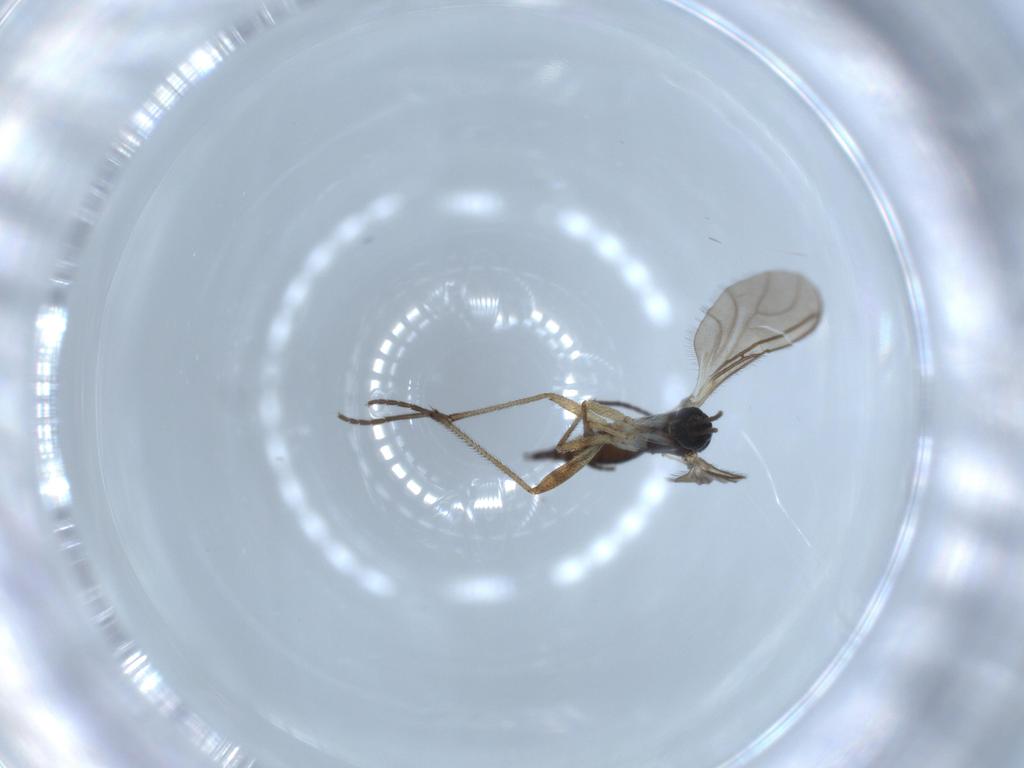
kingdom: Animalia
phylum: Arthropoda
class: Insecta
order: Diptera
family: Sciaridae
